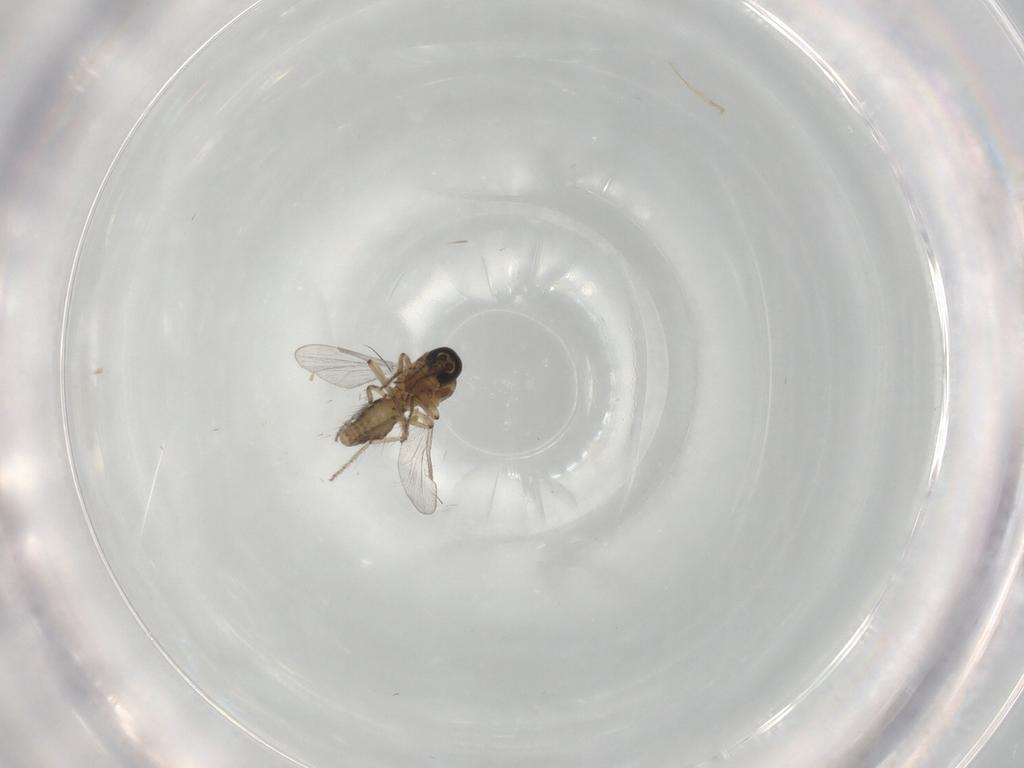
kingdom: Animalia
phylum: Arthropoda
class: Insecta
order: Diptera
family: Ceratopogonidae
